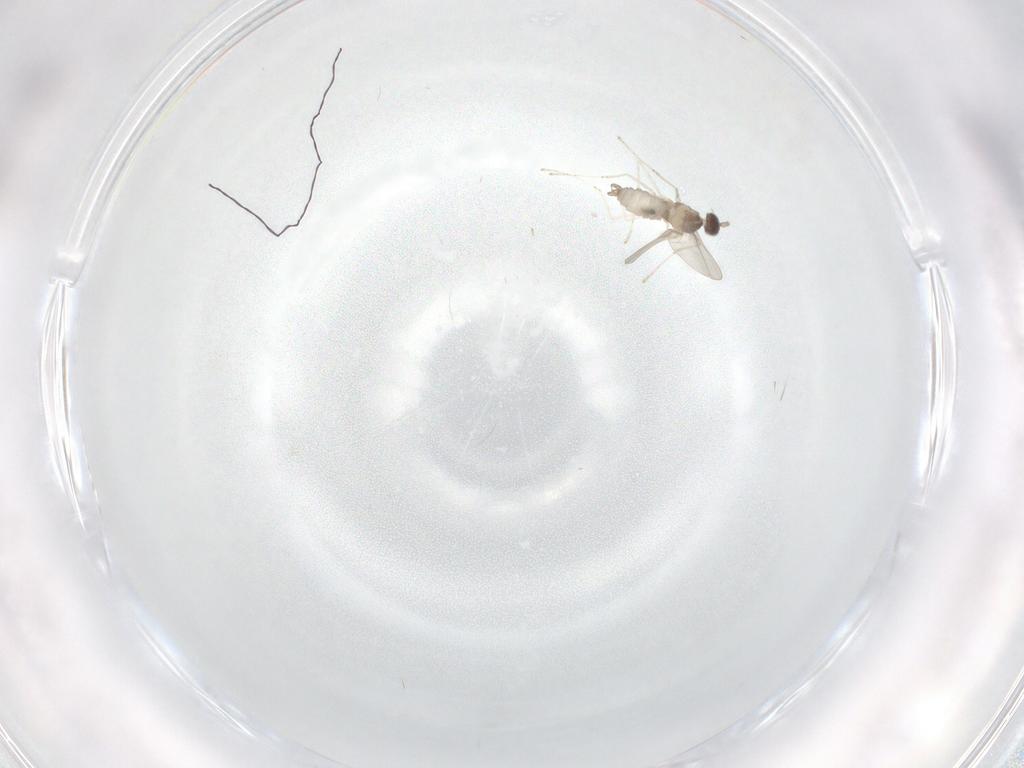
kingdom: Animalia
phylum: Arthropoda
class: Insecta
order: Diptera
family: Cecidomyiidae
